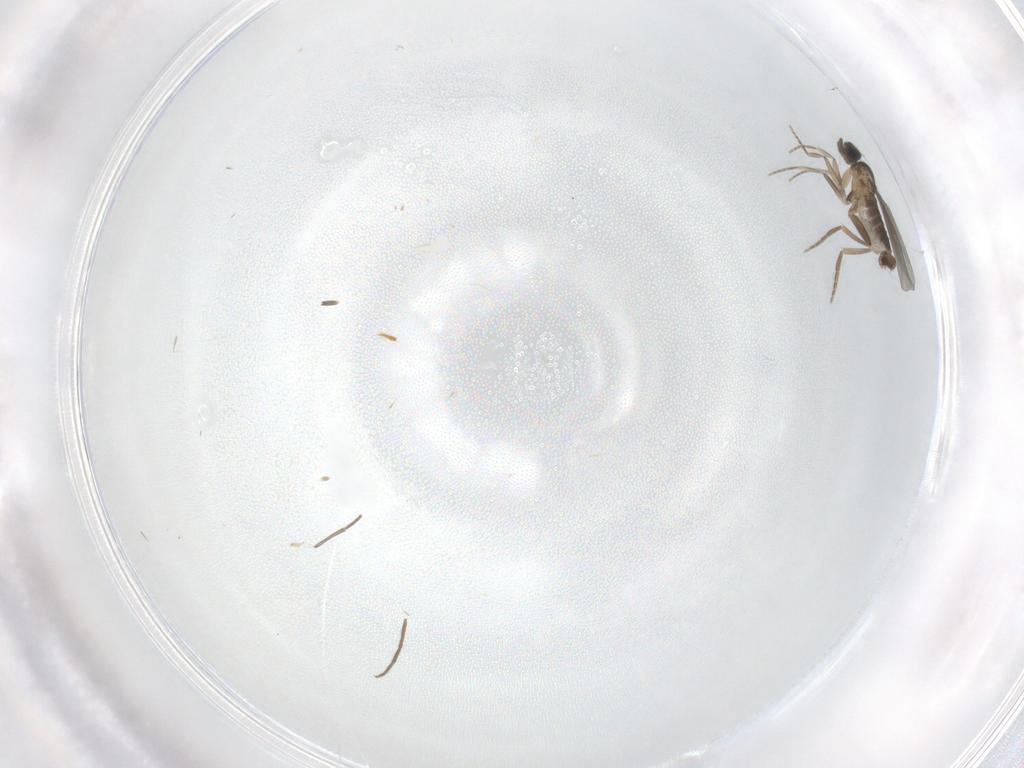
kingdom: Animalia
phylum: Arthropoda
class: Insecta
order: Diptera
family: Chironomidae
